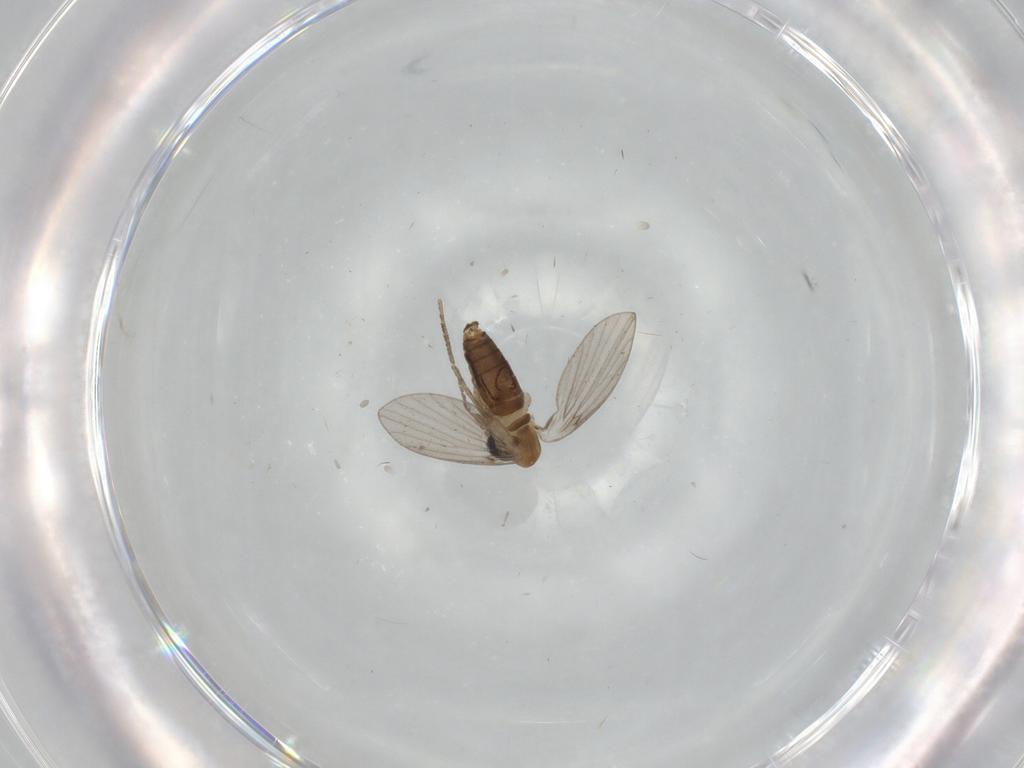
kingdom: Animalia
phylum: Arthropoda
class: Insecta
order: Diptera
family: Psychodidae
